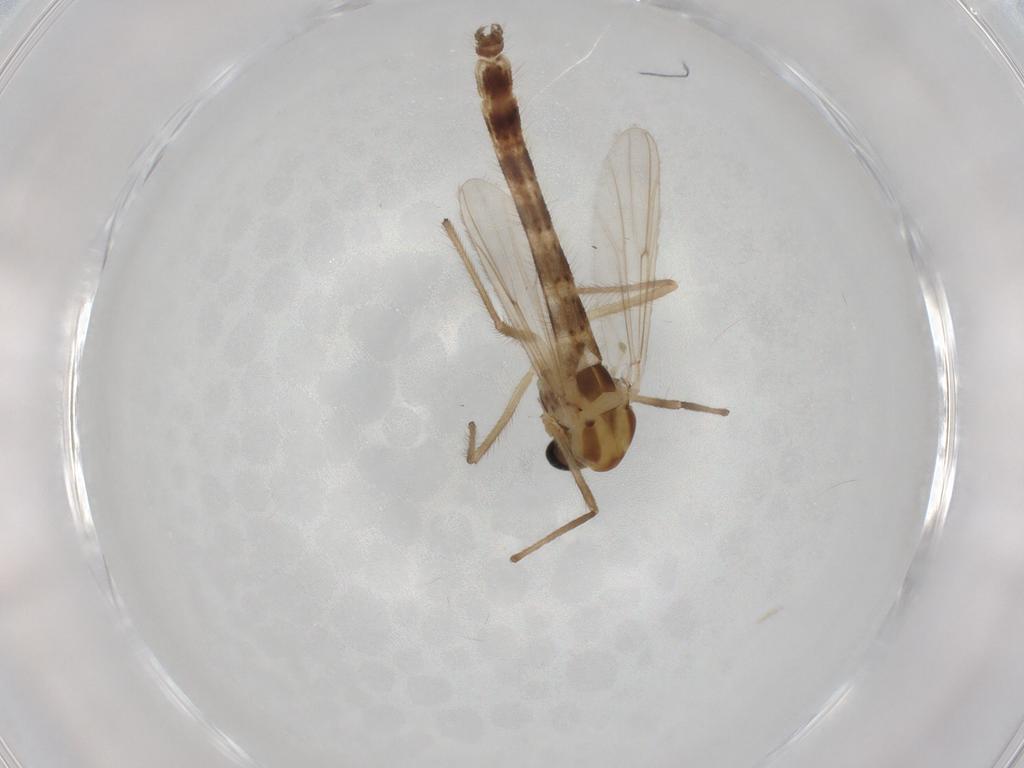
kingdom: Animalia
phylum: Arthropoda
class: Insecta
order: Diptera
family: Chironomidae
